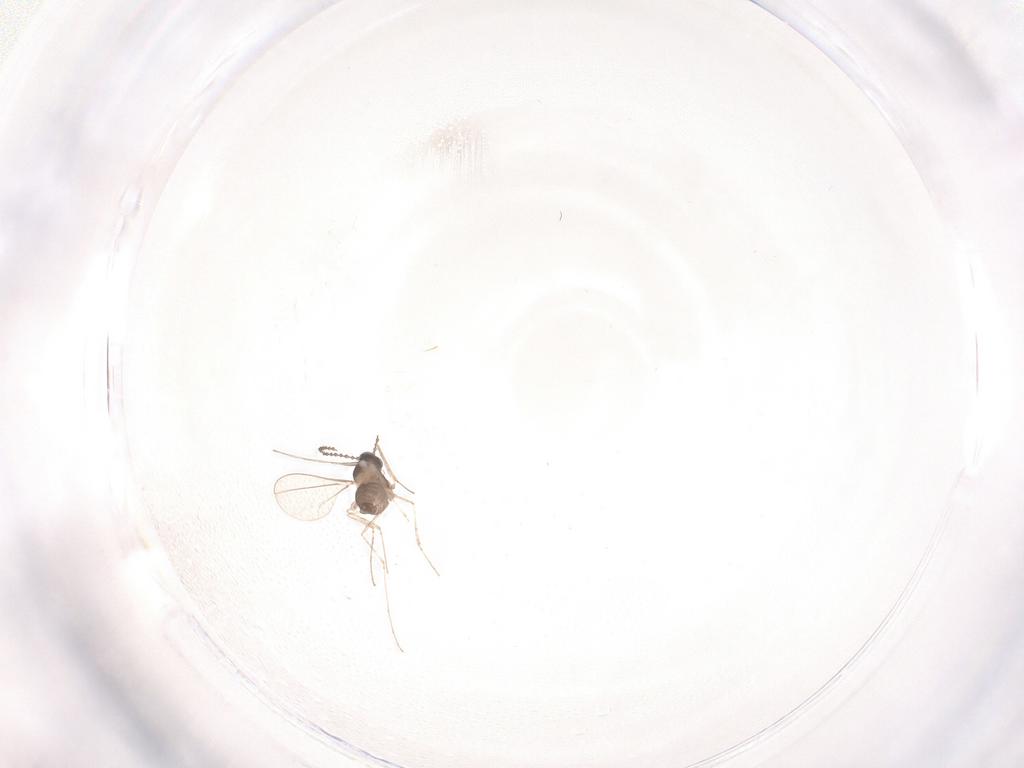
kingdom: Animalia
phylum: Arthropoda
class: Insecta
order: Diptera
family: Cecidomyiidae
